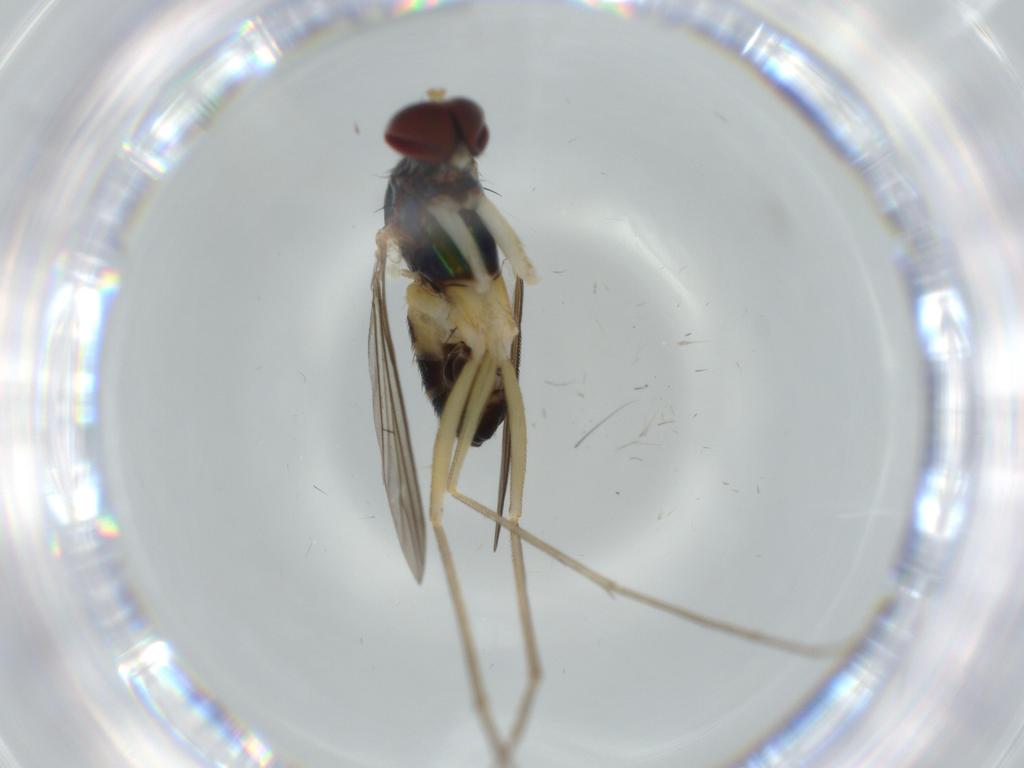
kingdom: Animalia
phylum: Arthropoda
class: Insecta
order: Diptera
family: Dolichopodidae
